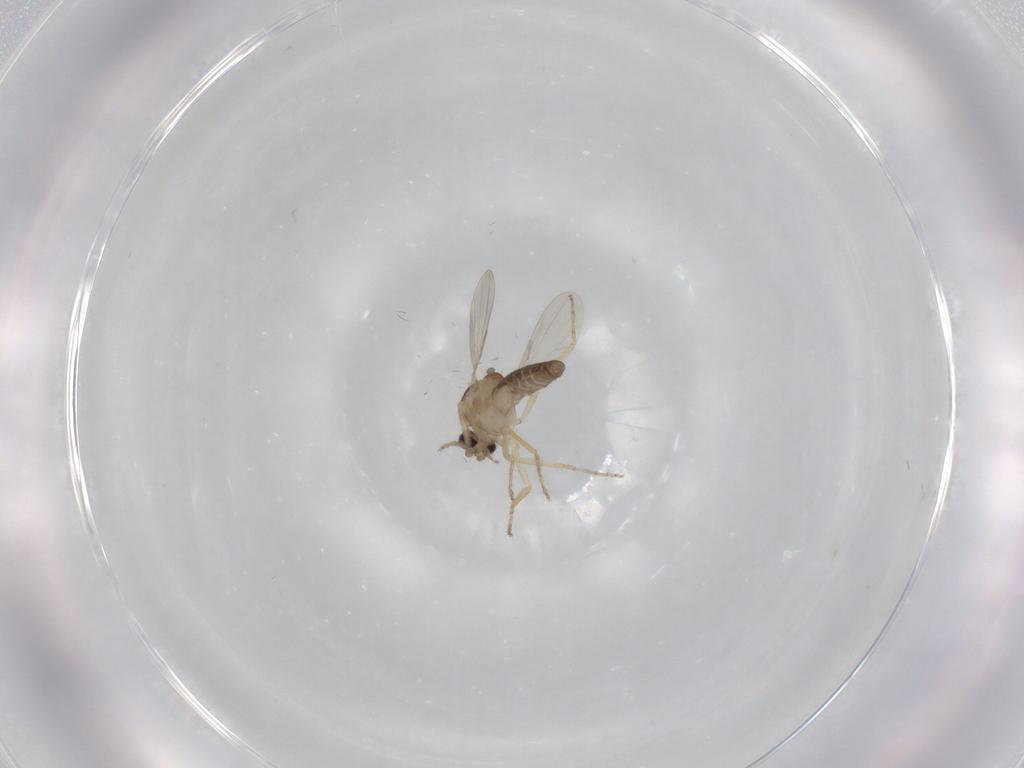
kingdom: Animalia
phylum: Arthropoda
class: Insecta
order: Diptera
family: Ceratopogonidae
